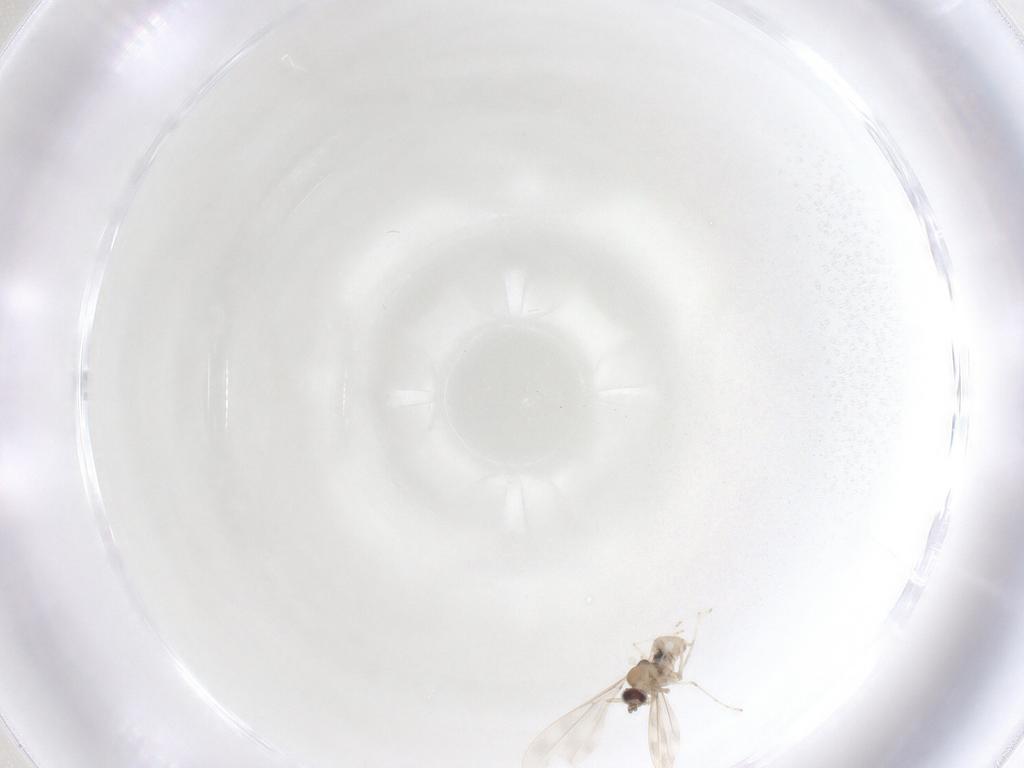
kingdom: Animalia
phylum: Arthropoda
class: Insecta
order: Diptera
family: Cecidomyiidae
